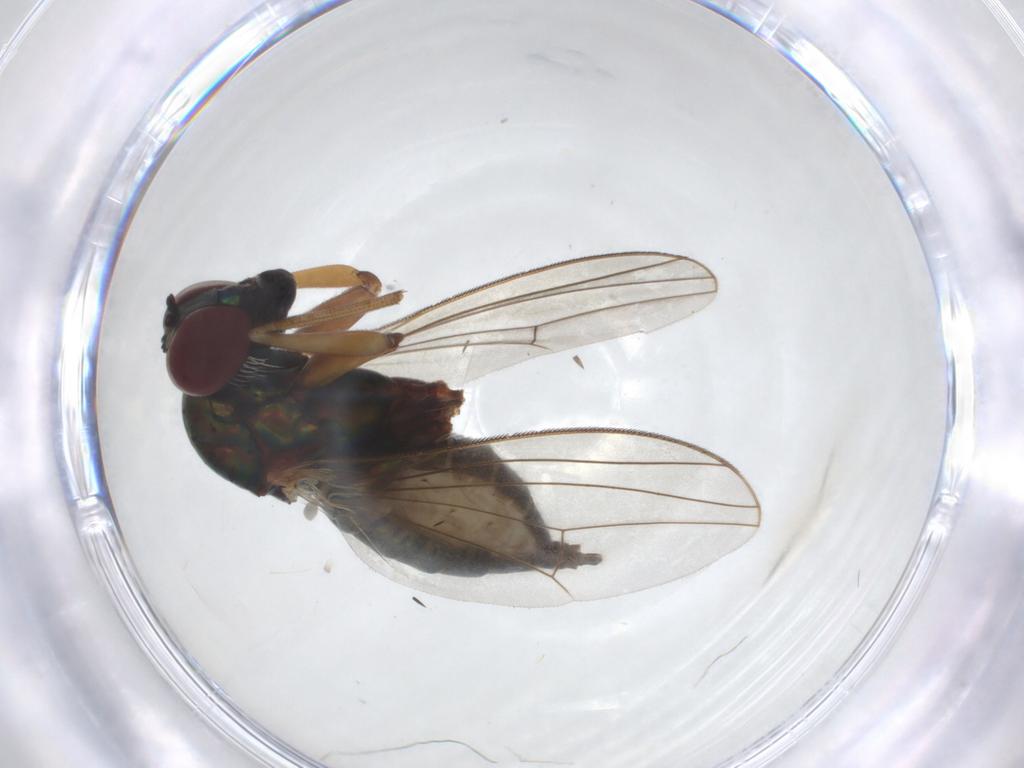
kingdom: Animalia
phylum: Arthropoda
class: Insecta
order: Diptera
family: Dolichopodidae
